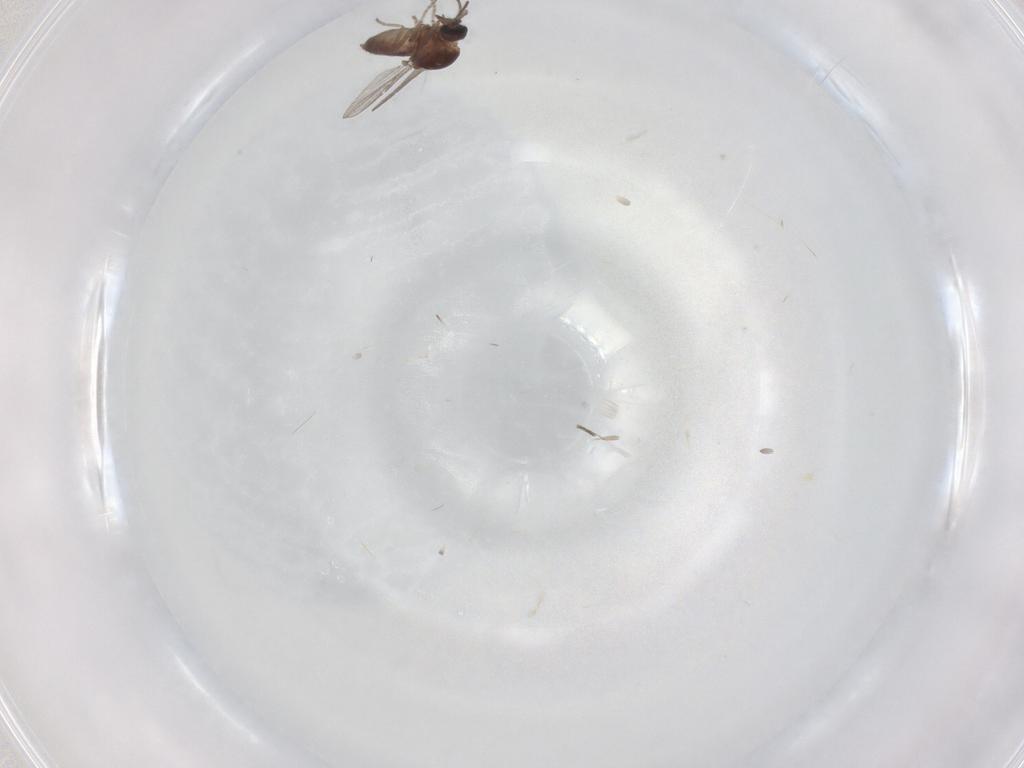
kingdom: Animalia
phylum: Arthropoda
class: Insecta
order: Diptera
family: Ceratopogonidae
